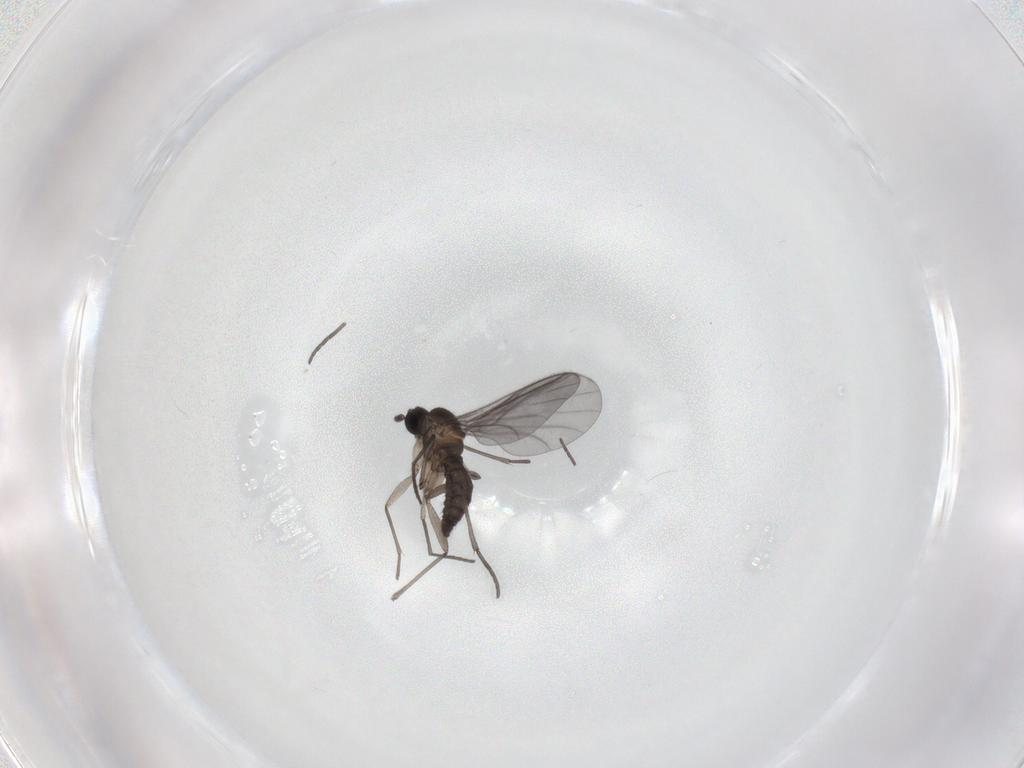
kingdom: Animalia
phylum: Arthropoda
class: Insecta
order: Diptera
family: Sciaridae
